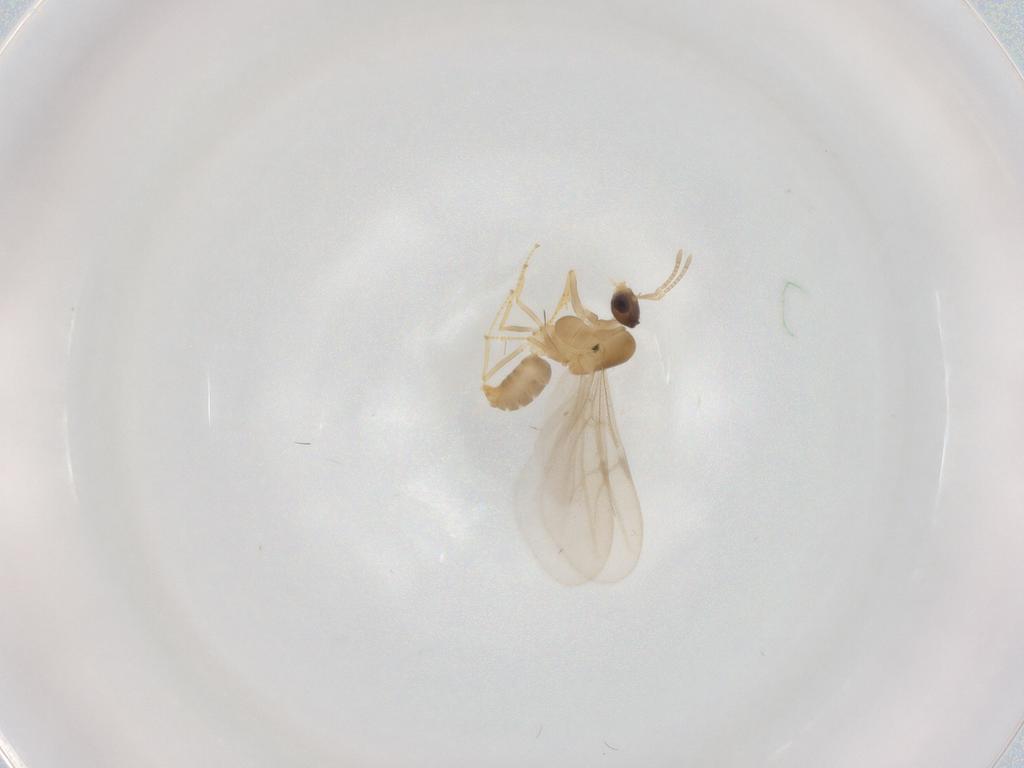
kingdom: Animalia
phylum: Arthropoda
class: Insecta
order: Hymenoptera
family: Formicidae
